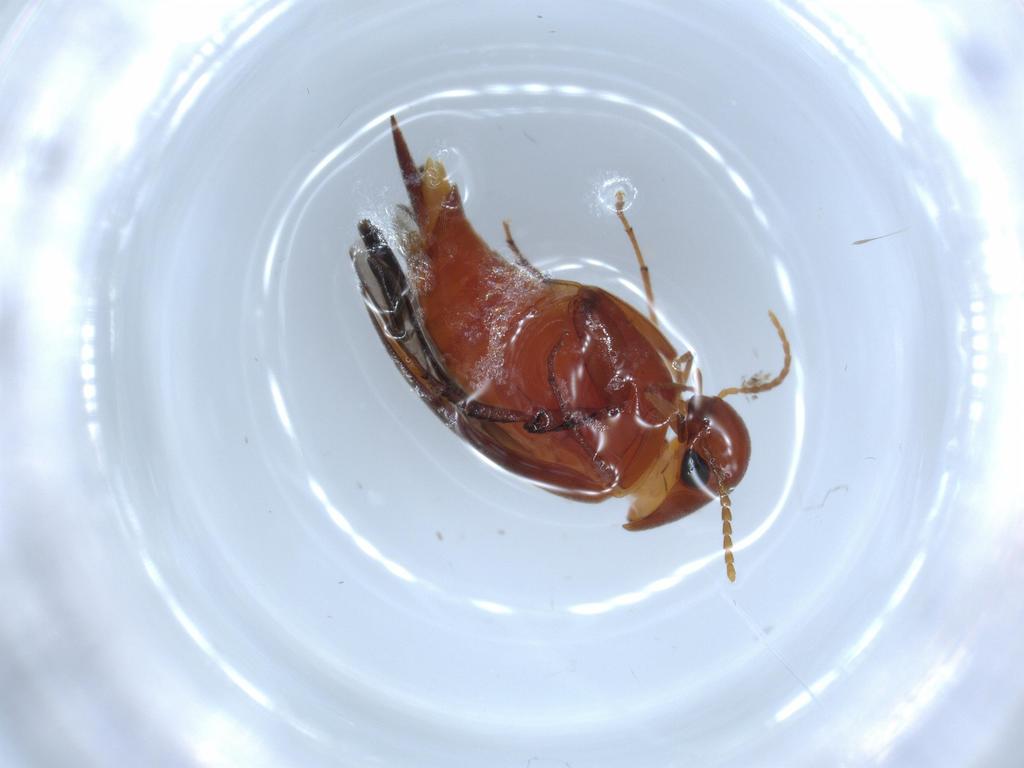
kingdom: Animalia
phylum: Arthropoda
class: Insecta
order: Coleoptera
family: Mordellidae
